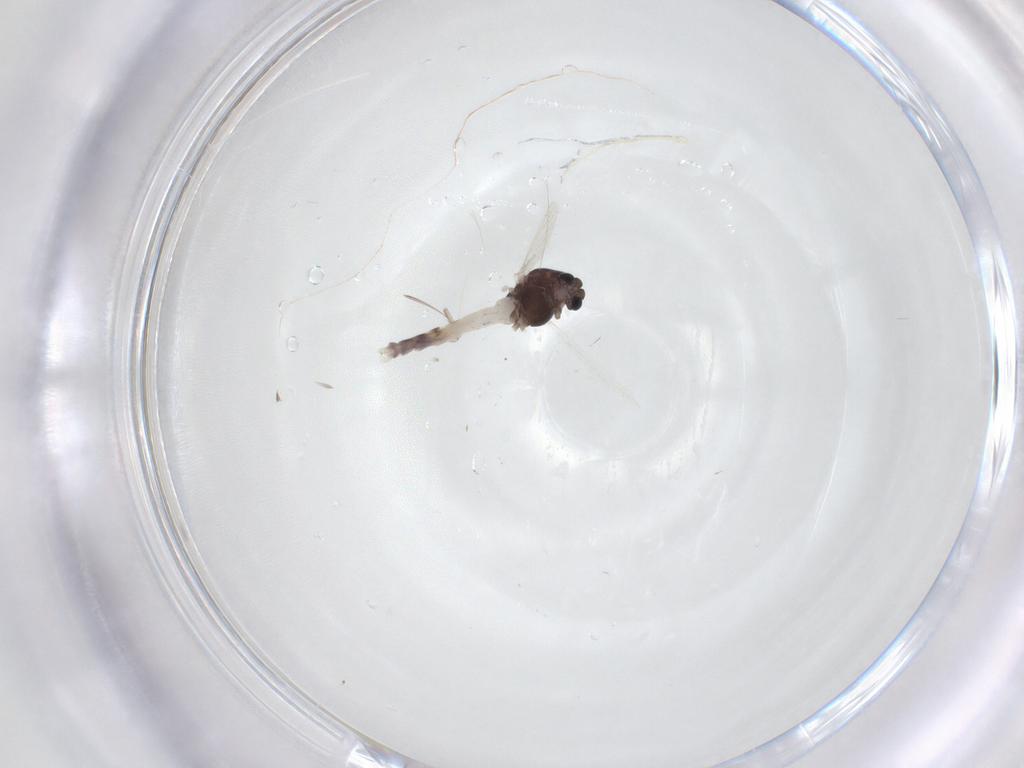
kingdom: Animalia
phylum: Arthropoda
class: Insecta
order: Diptera
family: Chironomidae
